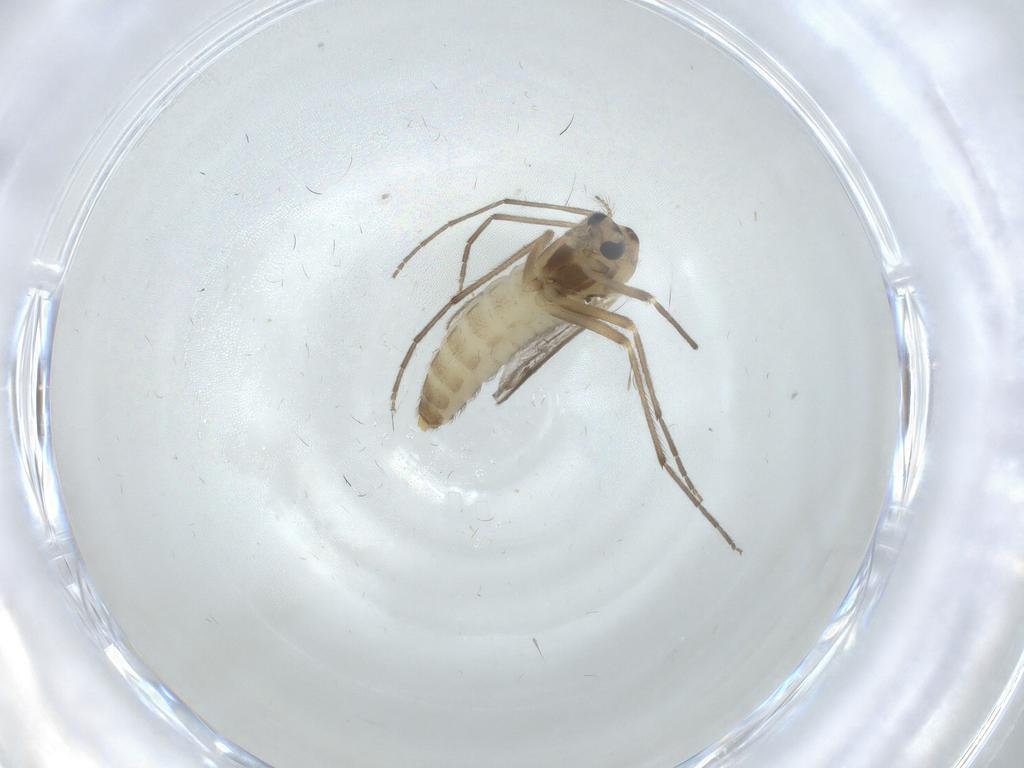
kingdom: Animalia
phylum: Arthropoda
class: Insecta
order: Diptera
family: Chironomidae
